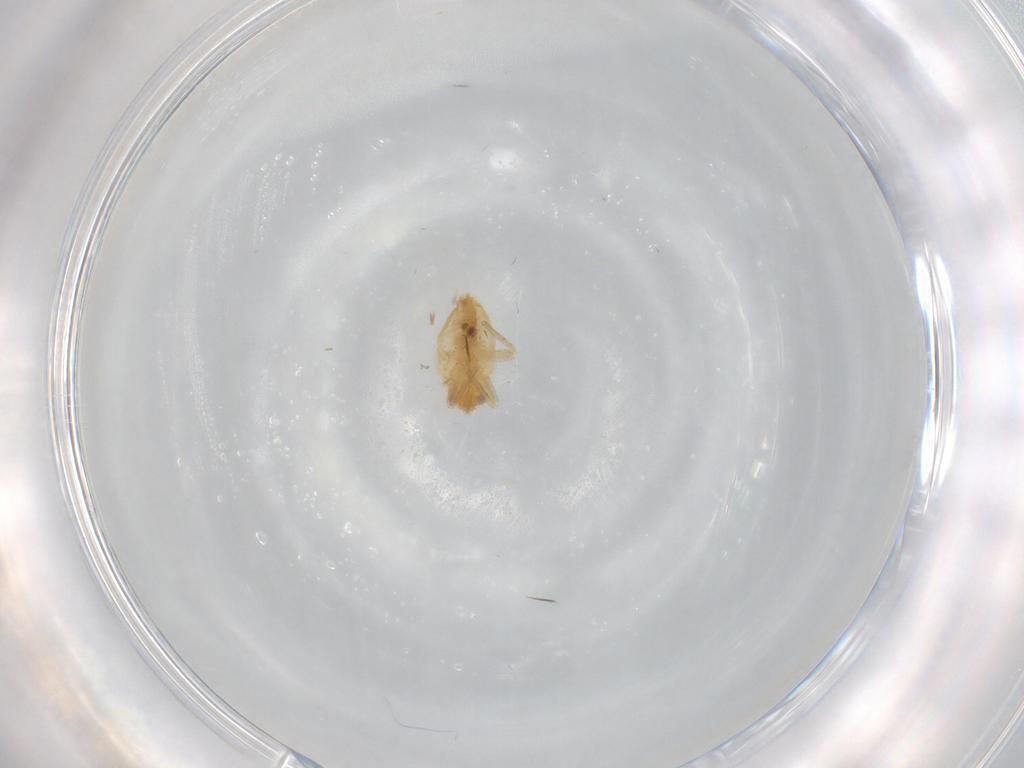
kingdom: Animalia
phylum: Arthropoda
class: Insecta
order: Hemiptera
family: Miridae
